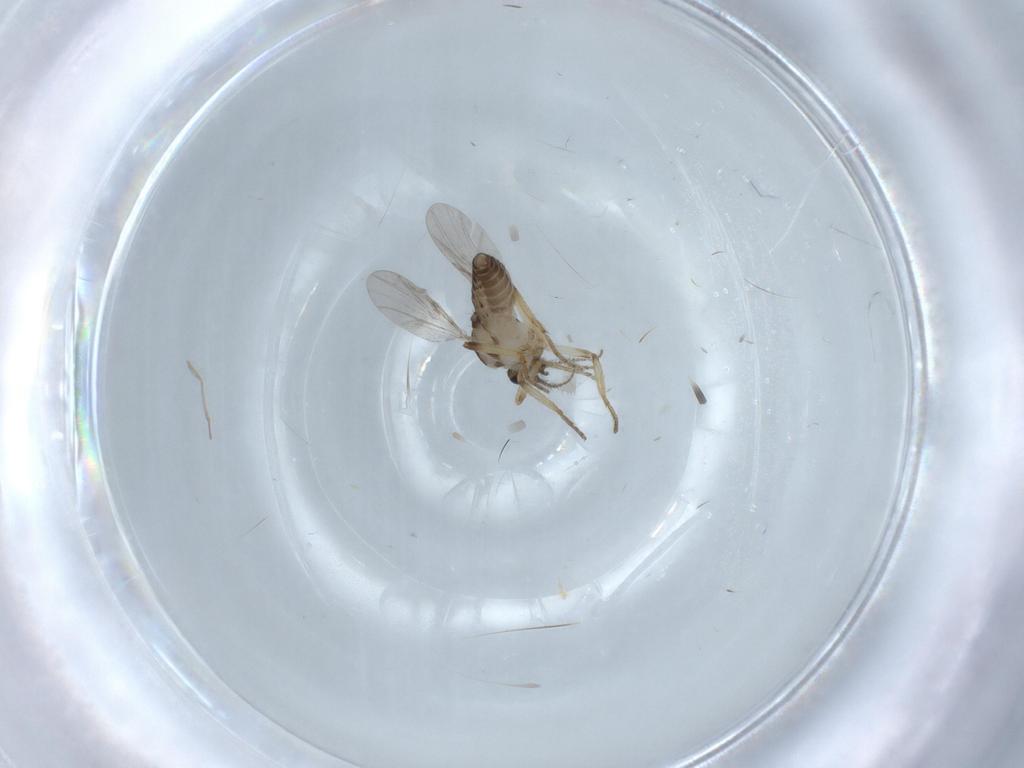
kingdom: Animalia
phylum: Arthropoda
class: Insecta
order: Diptera
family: Ceratopogonidae
